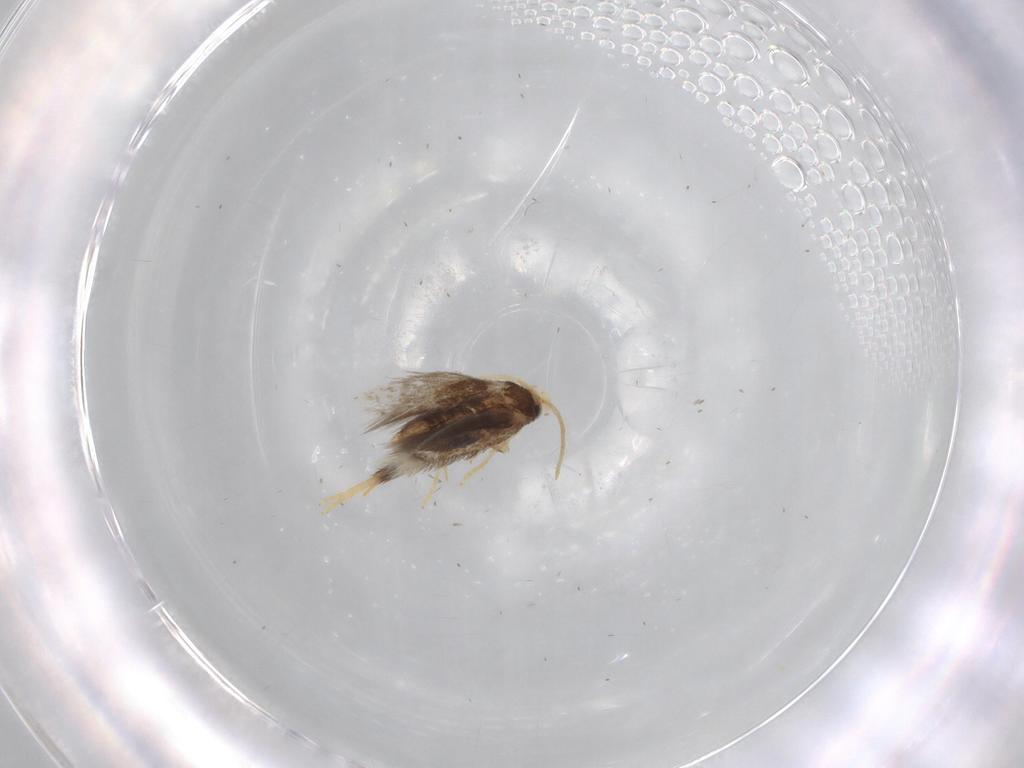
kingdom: Animalia
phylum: Arthropoda
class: Insecta
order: Lepidoptera
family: Nepticulidae
